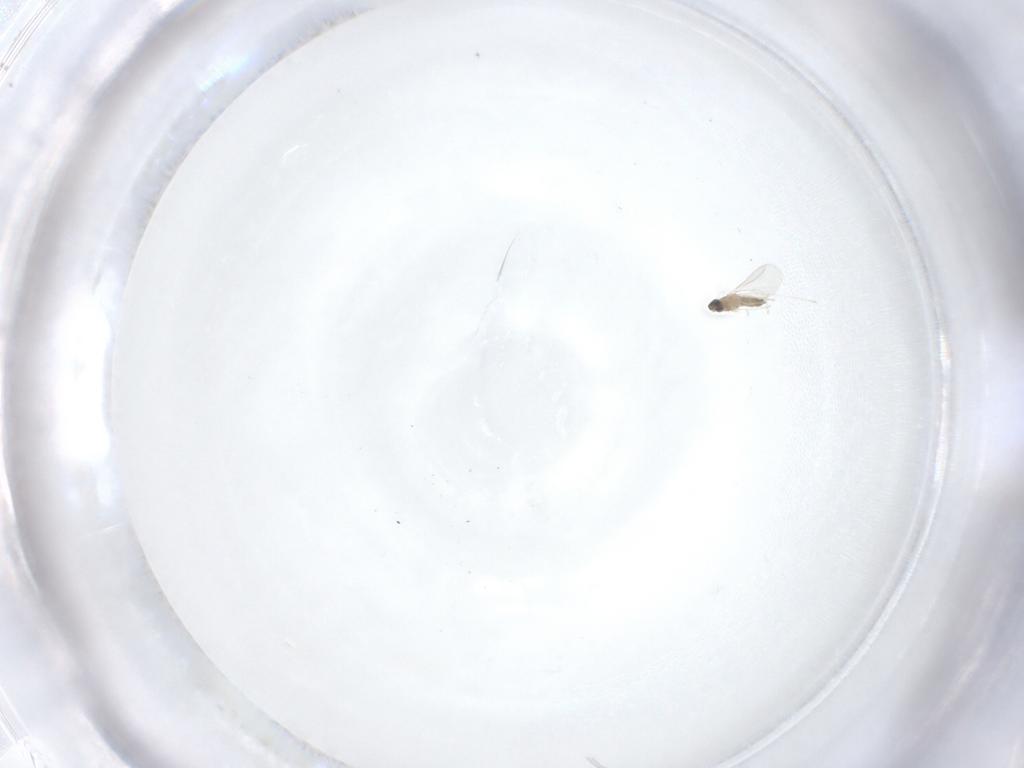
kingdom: Animalia
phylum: Arthropoda
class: Insecta
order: Diptera
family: Cecidomyiidae
